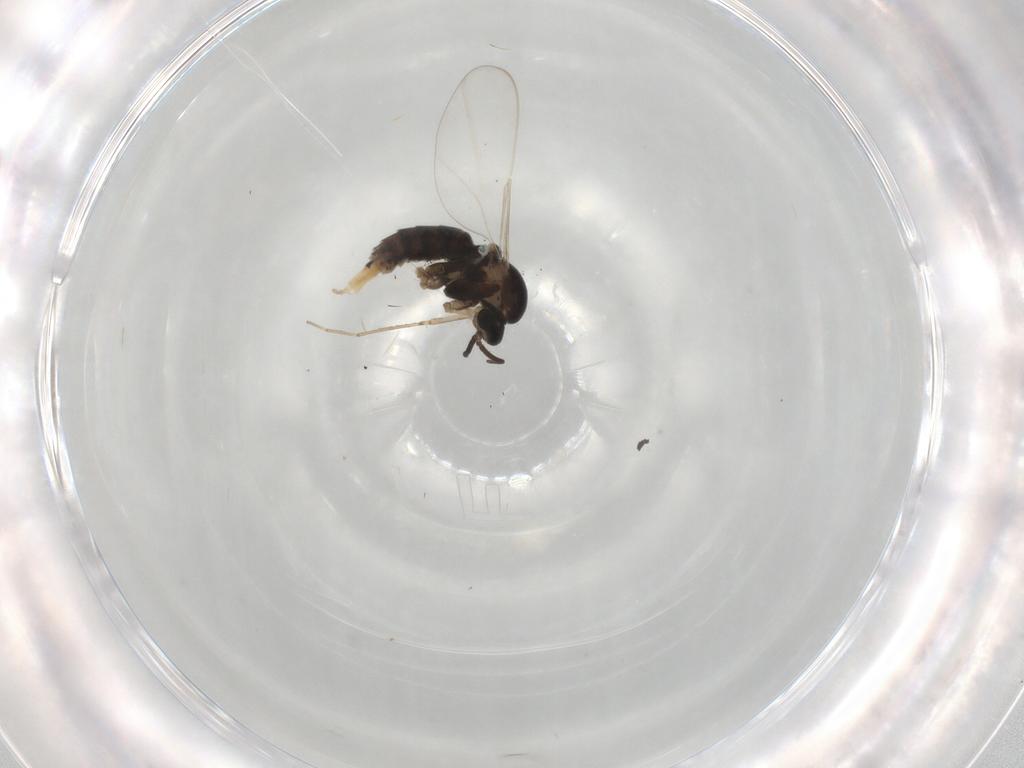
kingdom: Animalia
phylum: Arthropoda
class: Insecta
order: Diptera
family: Cecidomyiidae
